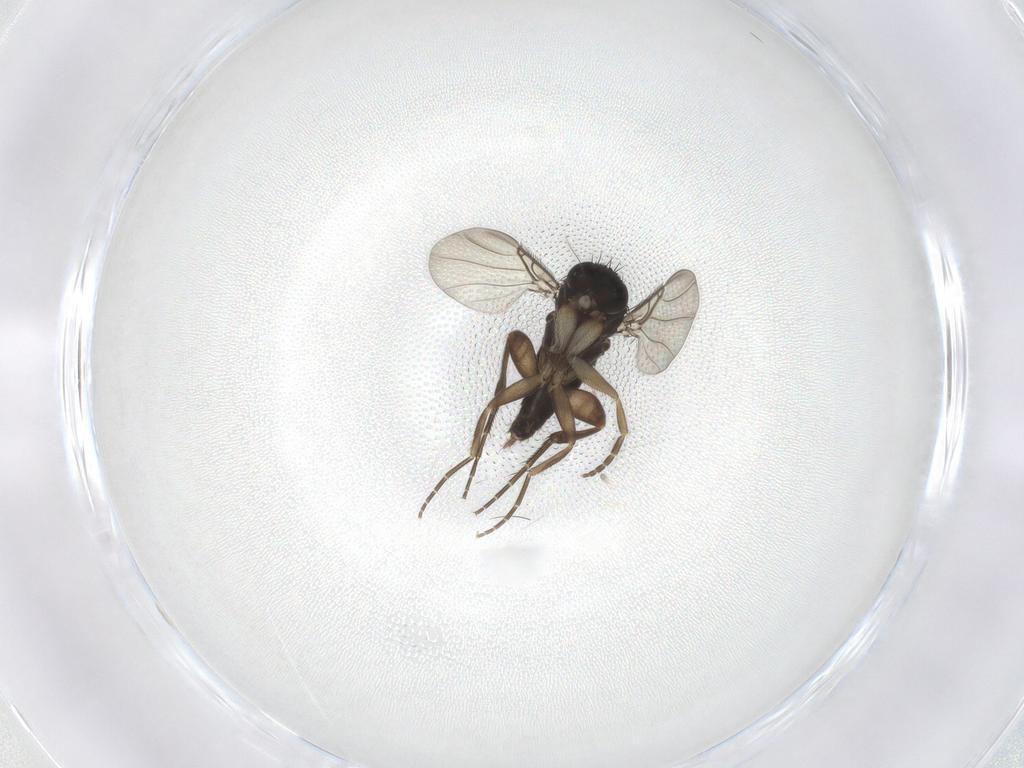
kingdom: Animalia
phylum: Arthropoda
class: Insecta
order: Diptera
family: Phoridae
